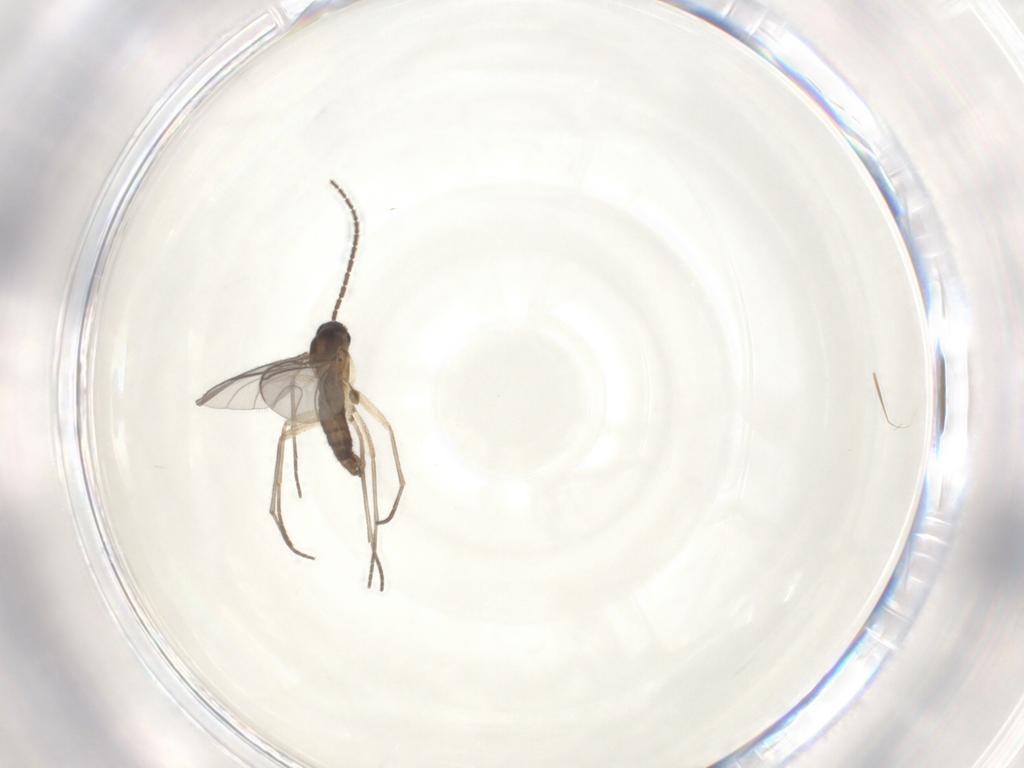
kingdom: Animalia
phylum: Arthropoda
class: Insecta
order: Diptera
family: Sciaridae
